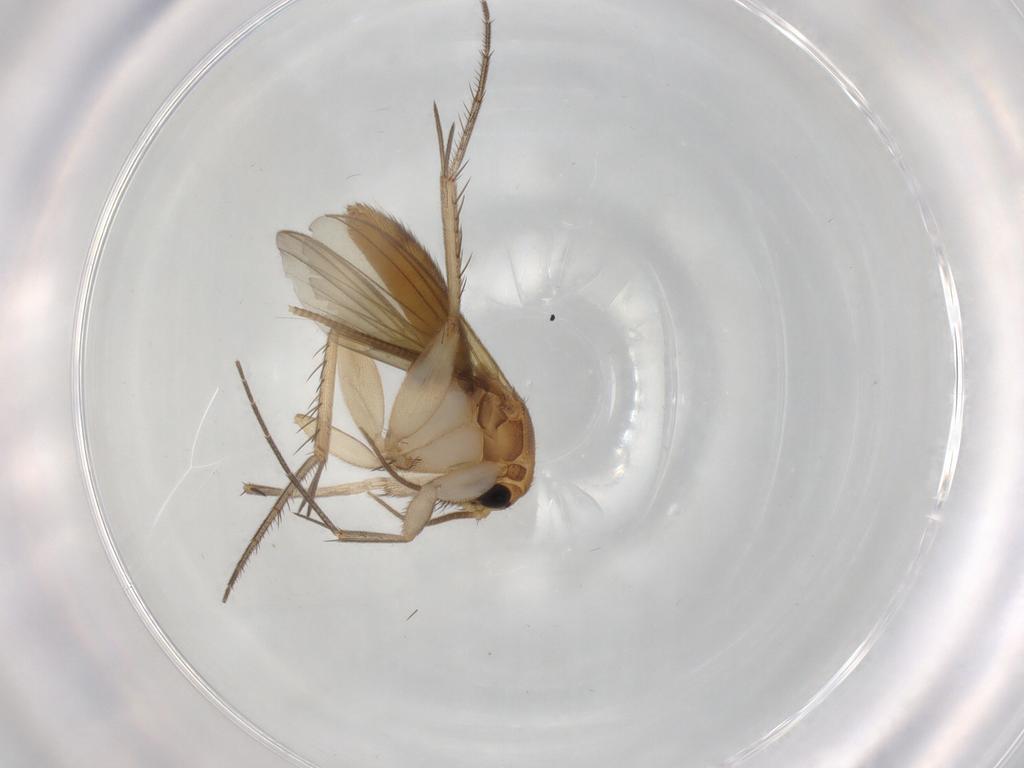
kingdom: Animalia
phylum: Arthropoda
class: Insecta
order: Diptera
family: Mycetophilidae
